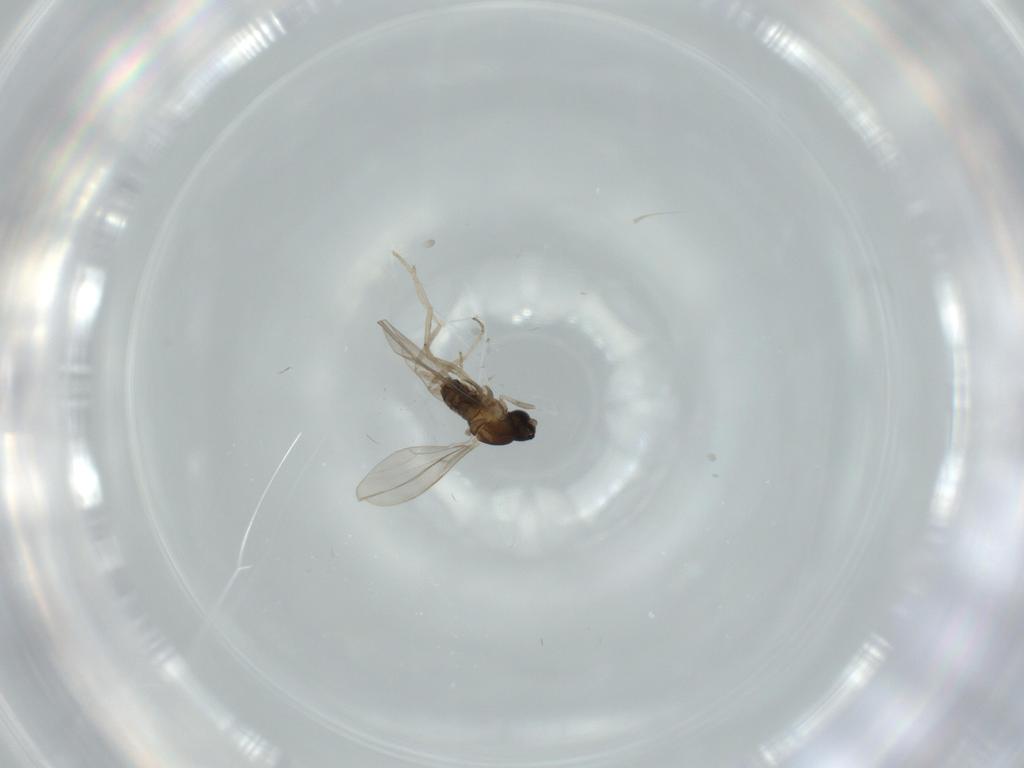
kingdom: Animalia
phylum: Arthropoda
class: Insecta
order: Diptera
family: Dolichopodidae
